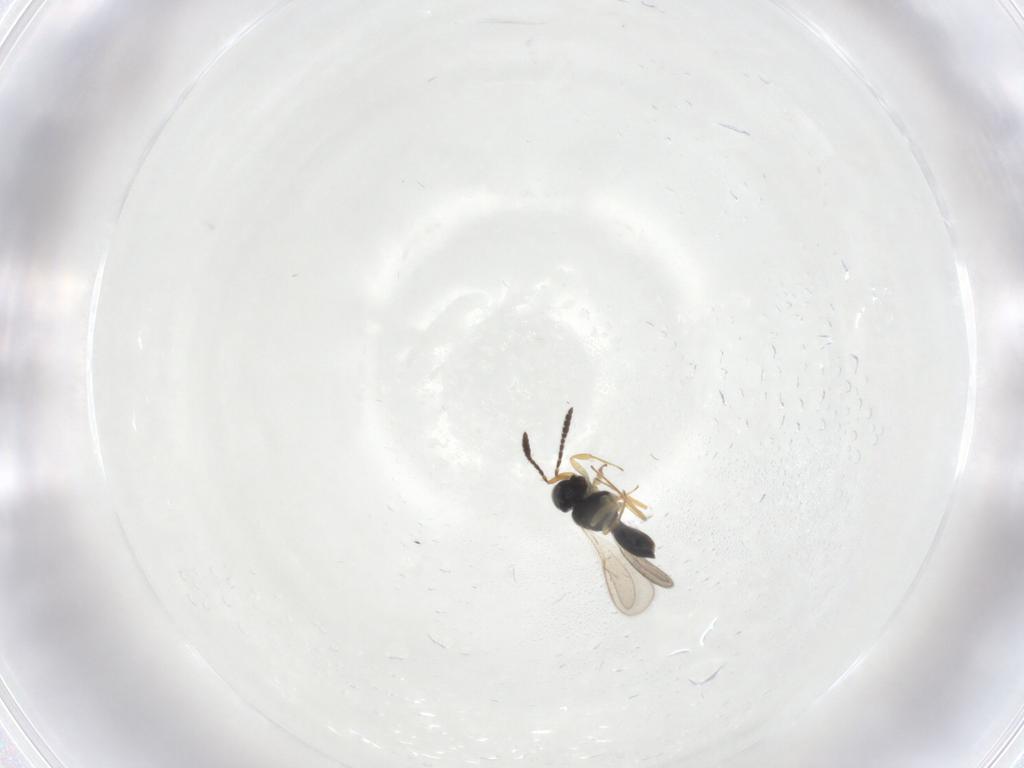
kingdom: Animalia
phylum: Arthropoda
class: Insecta
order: Hymenoptera
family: Scelionidae
